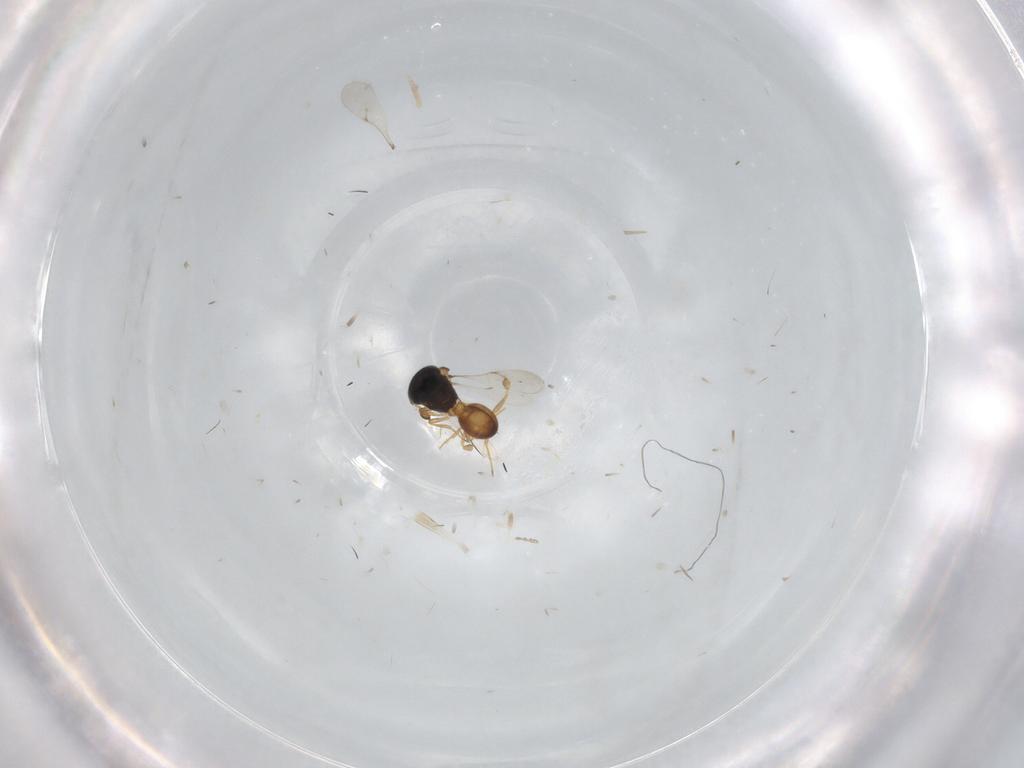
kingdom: Animalia
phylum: Arthropoda
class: Insecta
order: Hymenoptera
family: Scelionidae
